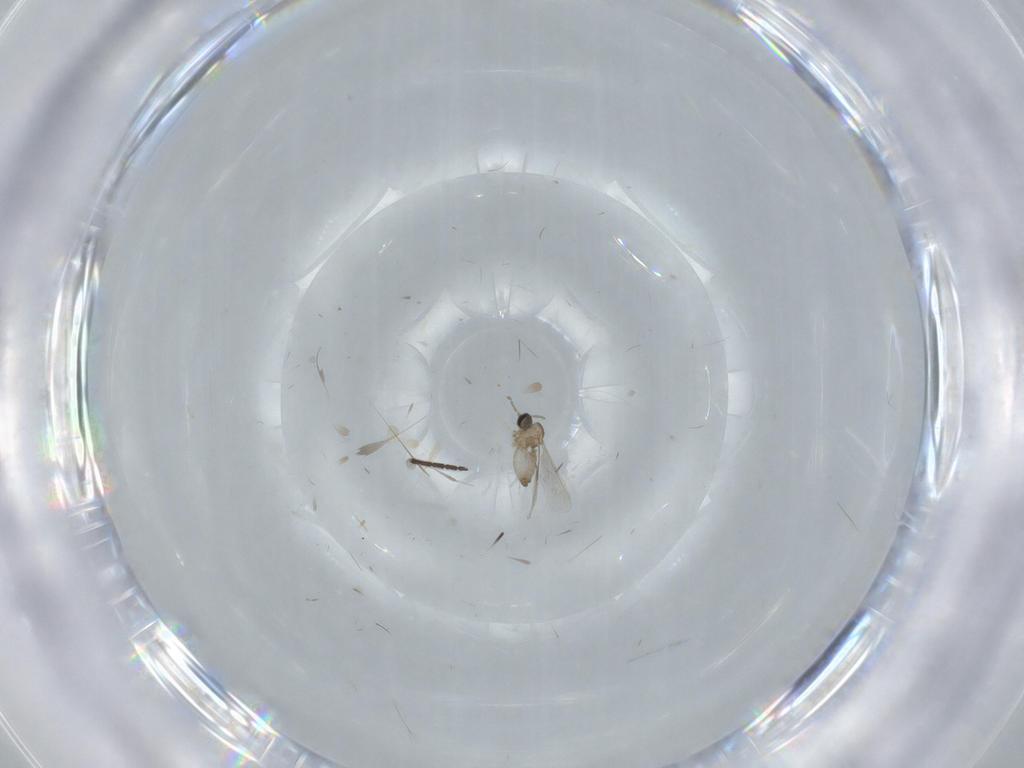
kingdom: Animalia
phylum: Arthropoda
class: Insecta
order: Diptera
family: Sciaridae
